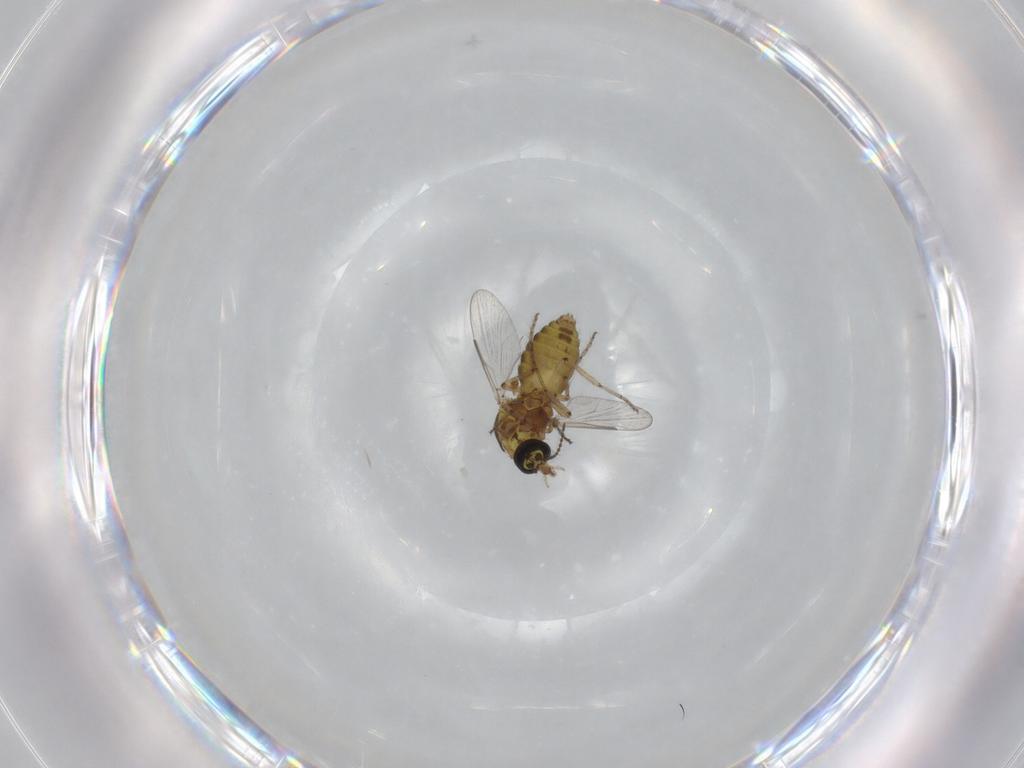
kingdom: Animalia
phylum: Arthropoda
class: Insecta
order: Diptera
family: Ceratopogonidae
